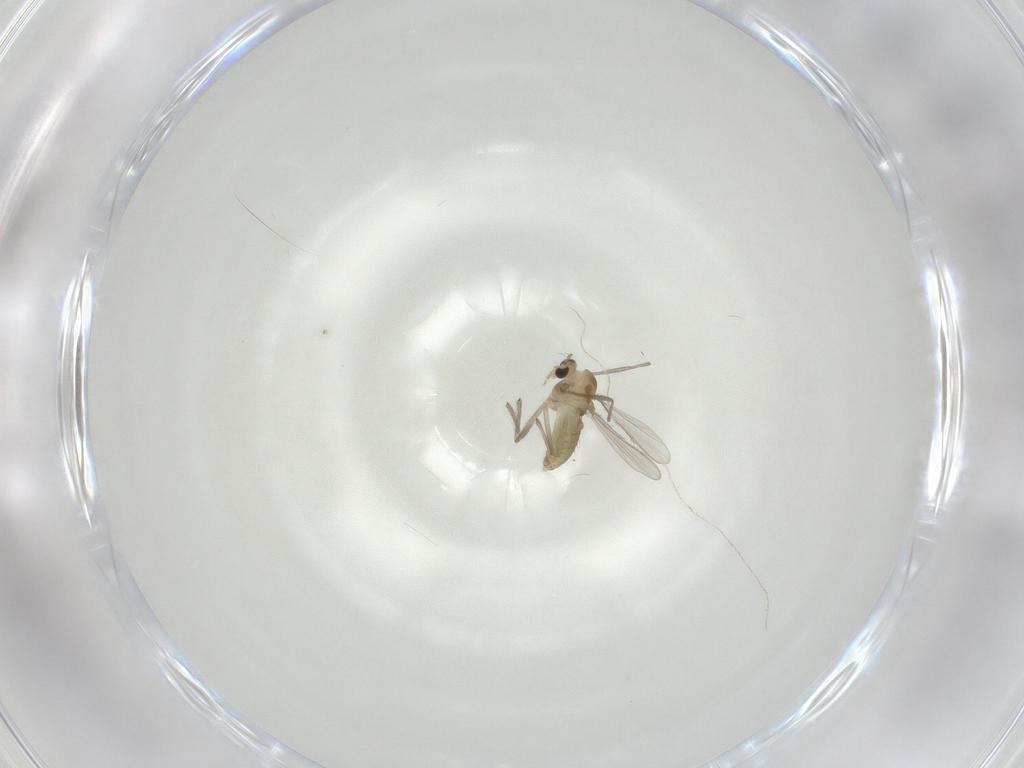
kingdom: Animalia
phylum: Arthropoda
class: Insecta
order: Diptera
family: Chironomidae
